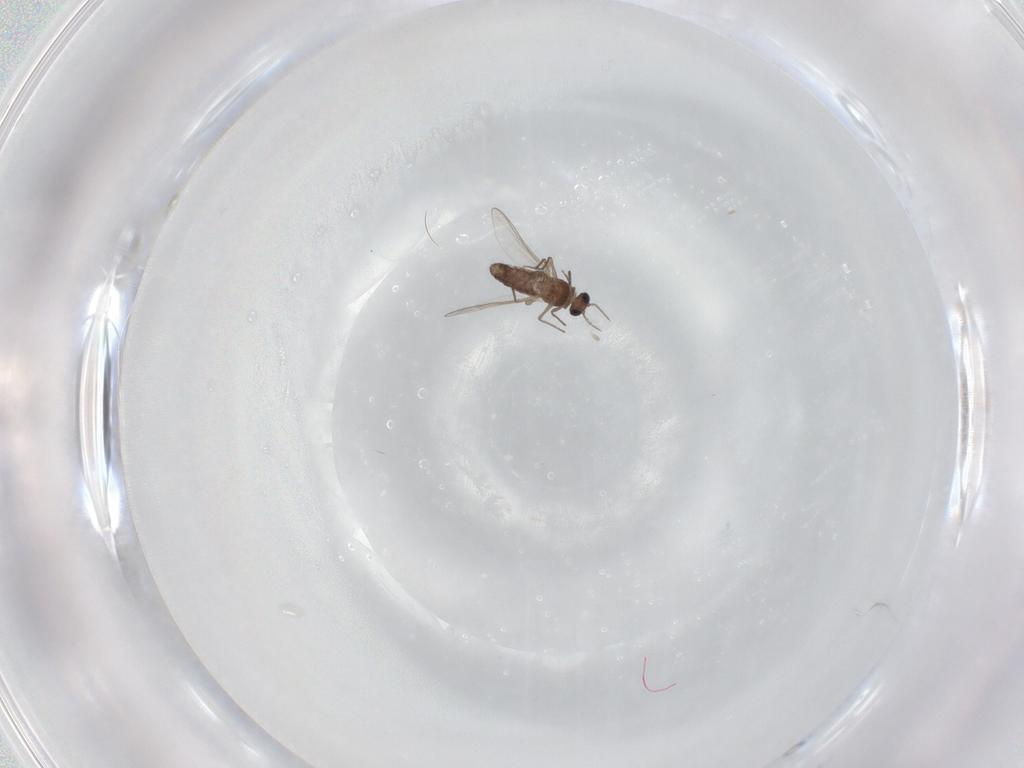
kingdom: Animalia
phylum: Arthropoda
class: Insecta
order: Diptera
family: Chironomidae
